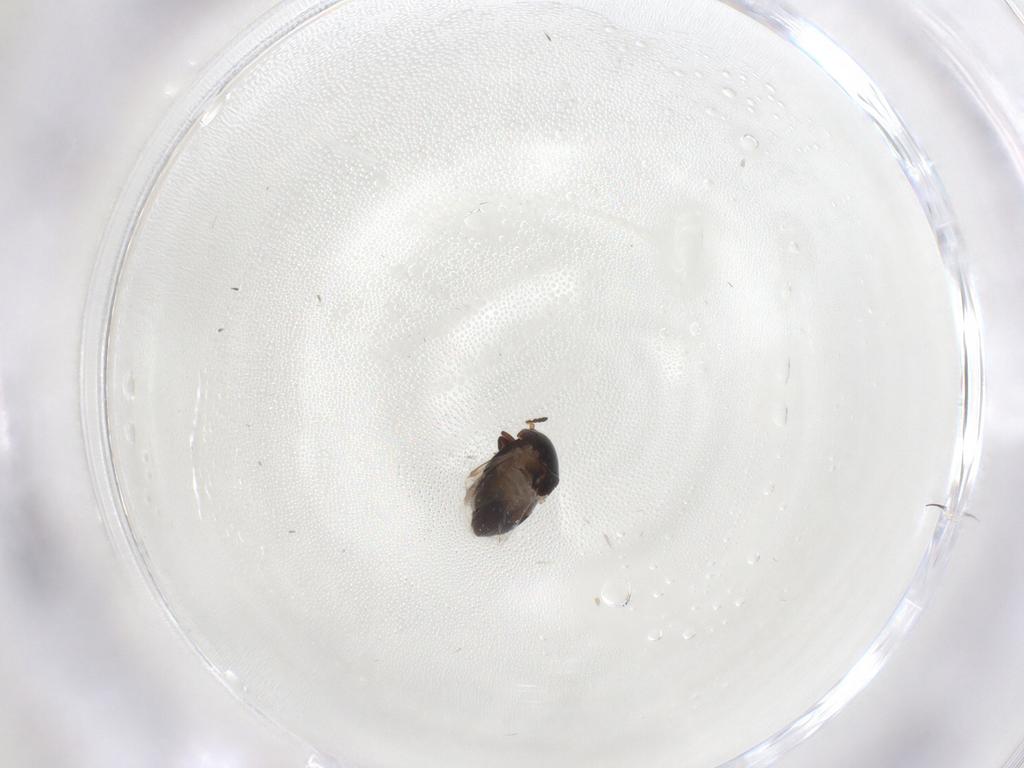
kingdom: Animalia
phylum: Arthropoda
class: Insecta
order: Coleoptera
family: Corylophidae
